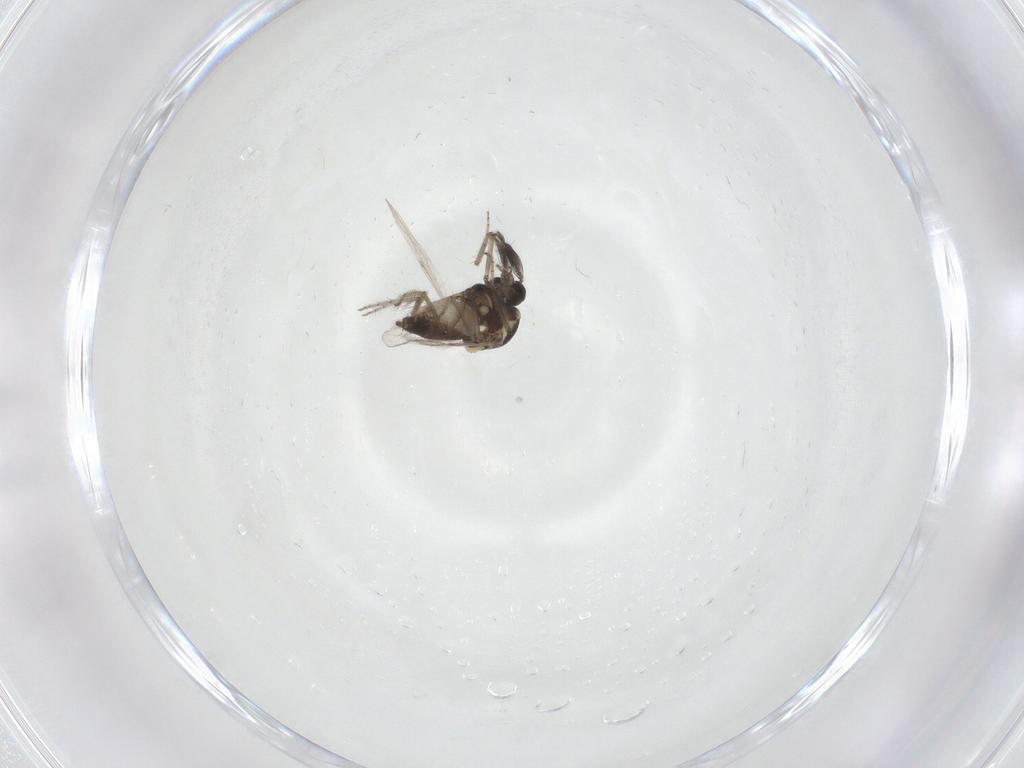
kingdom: Animalia
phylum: Arthropoda
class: Insecta
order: Diptera
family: Ceratopogonidae
